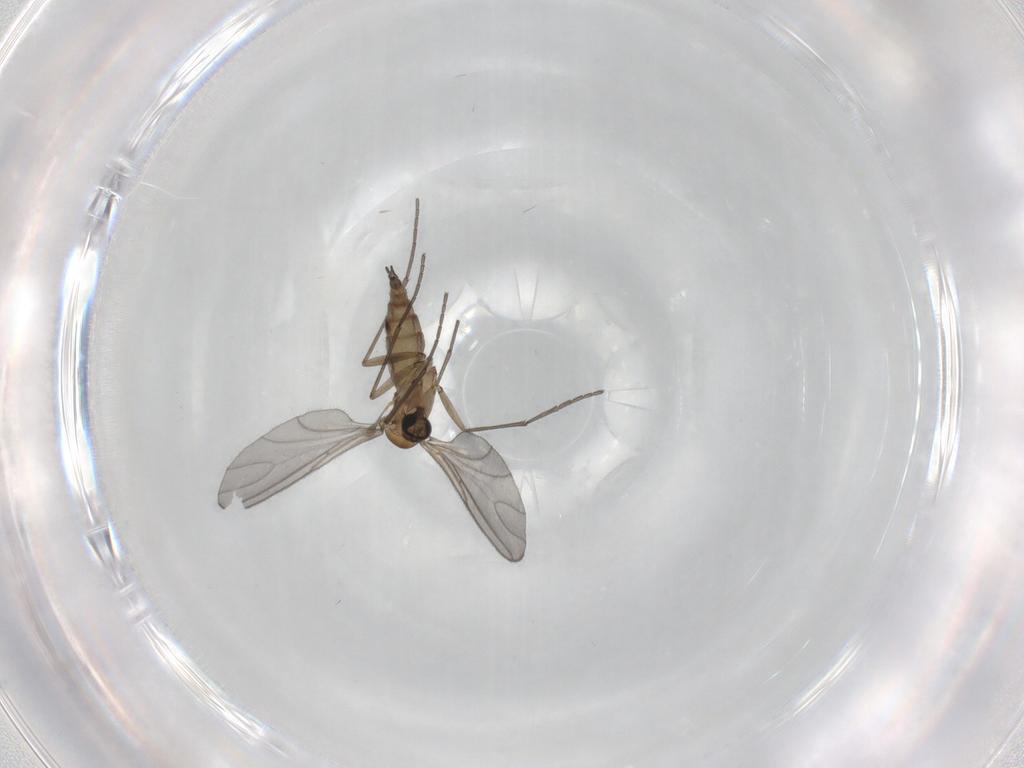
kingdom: Animalia
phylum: Arthropoda
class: Insecta
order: Diptera
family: Sciaridae
